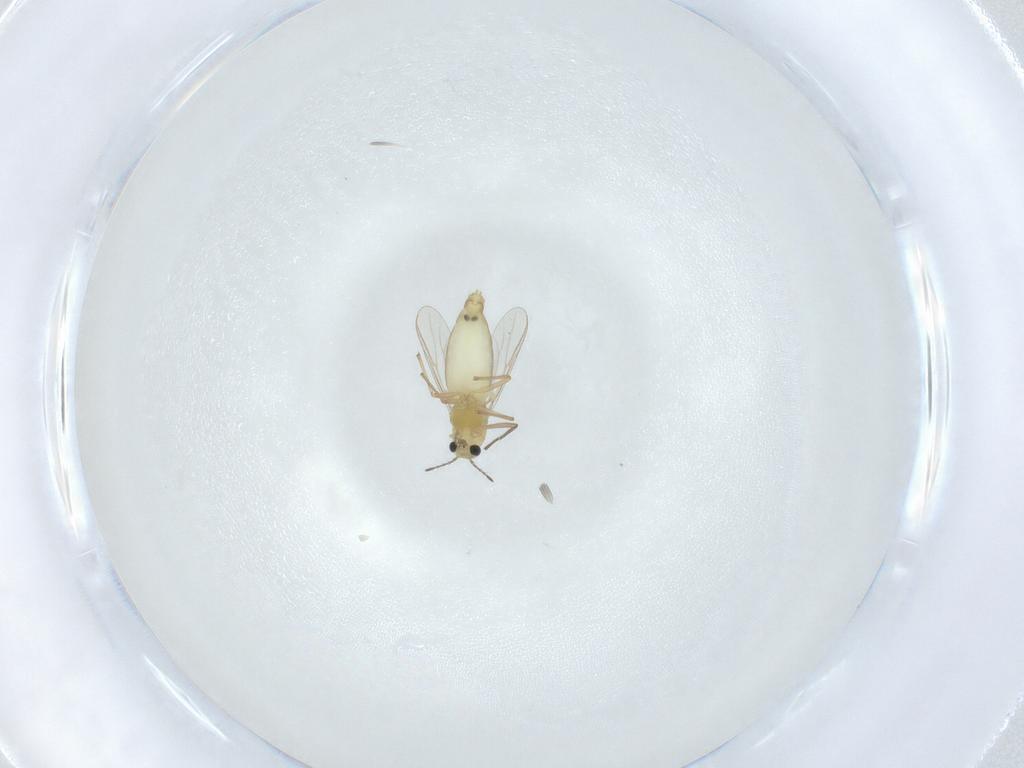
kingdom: Animalia
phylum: Arthropoda
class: Insecta
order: Diptera
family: Chironomidae
